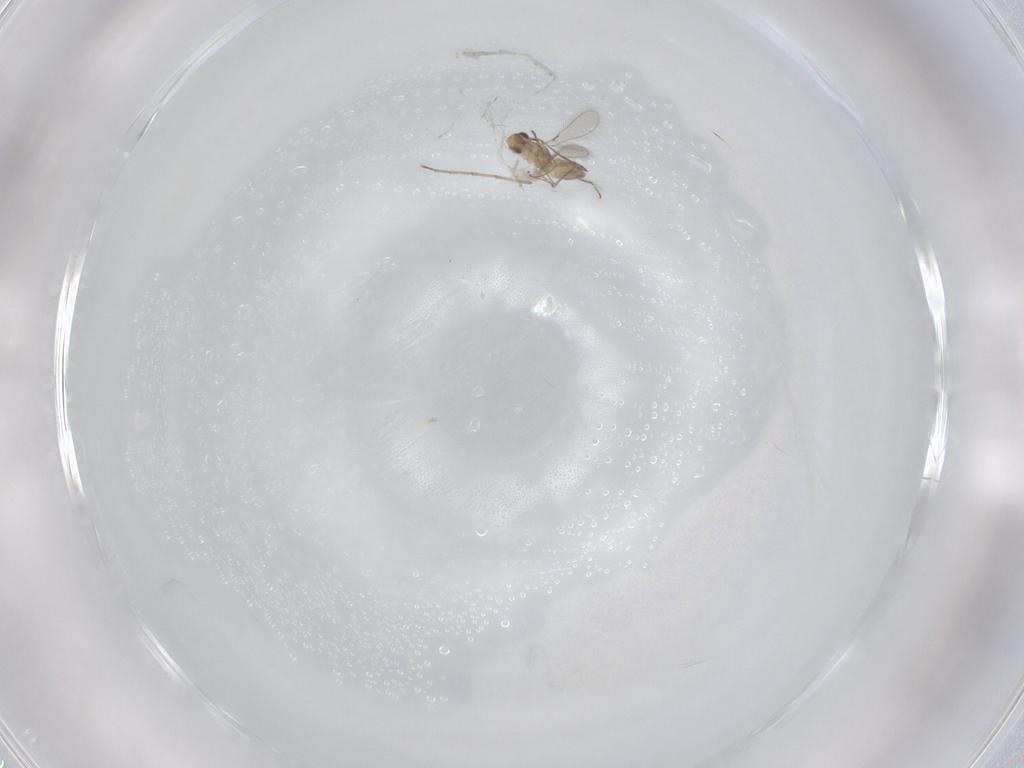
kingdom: Animalia
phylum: Arthropoda
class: Insecta
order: Hymenoptera
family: Mymaridae
